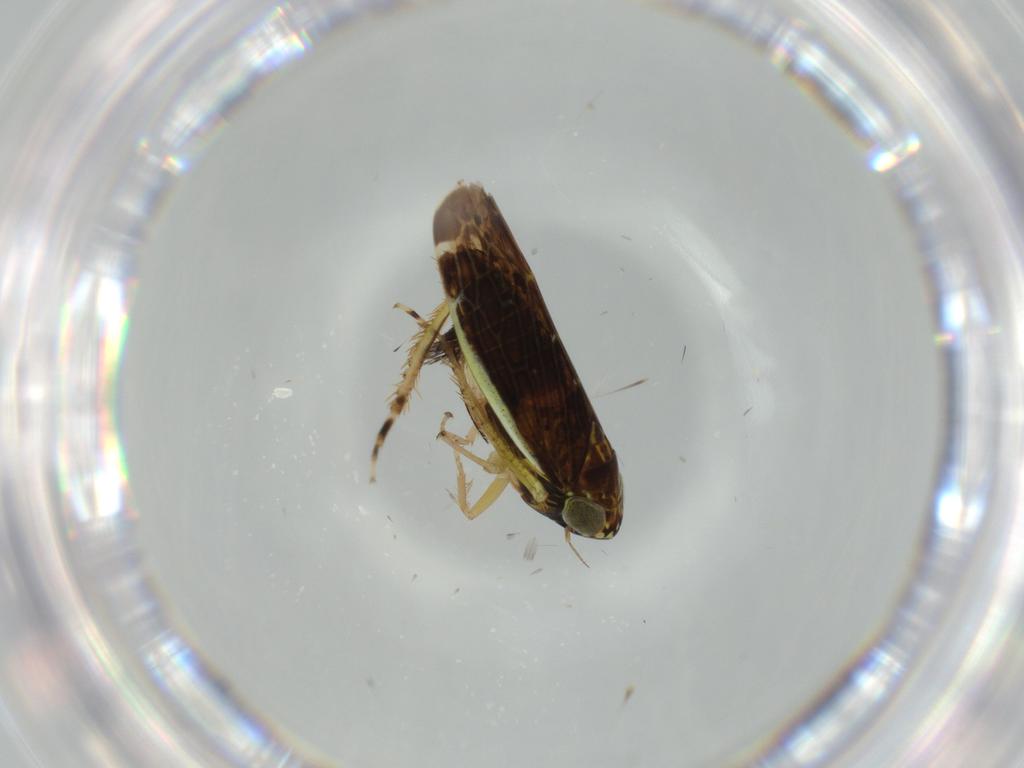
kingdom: Animalia
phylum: Arthropoda
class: Insecta
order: Hemiptera
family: Cicadellidae
